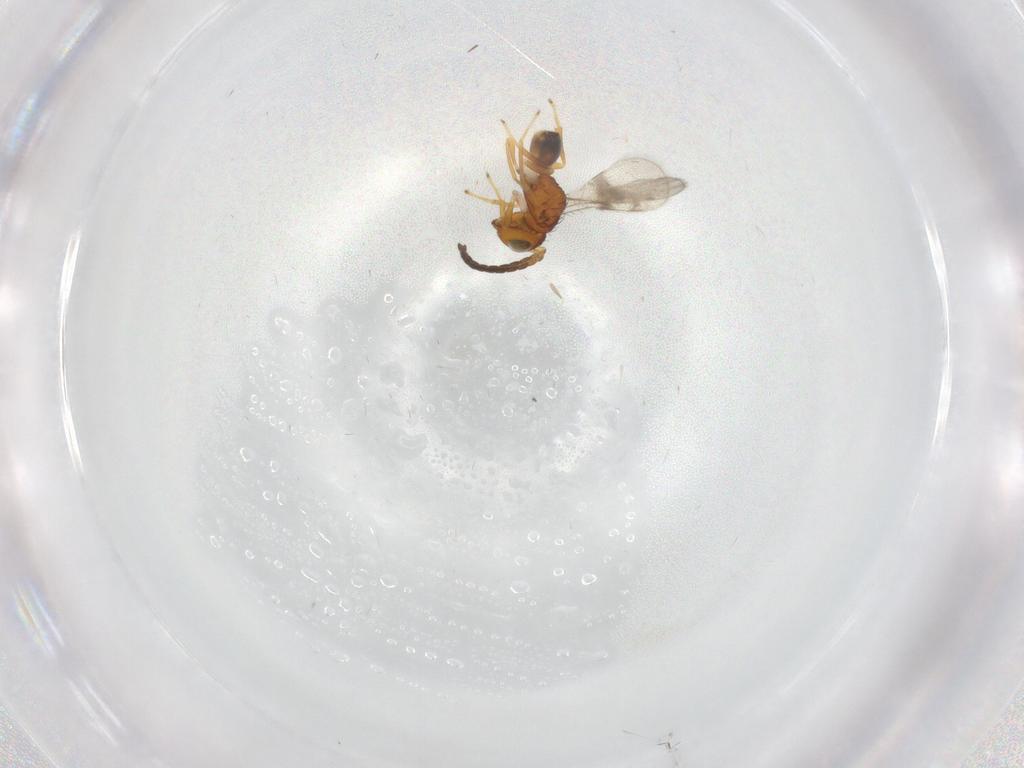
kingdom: Animalia
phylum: Arthropoda
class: Insecta
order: Hymenoptera
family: Diparidae
